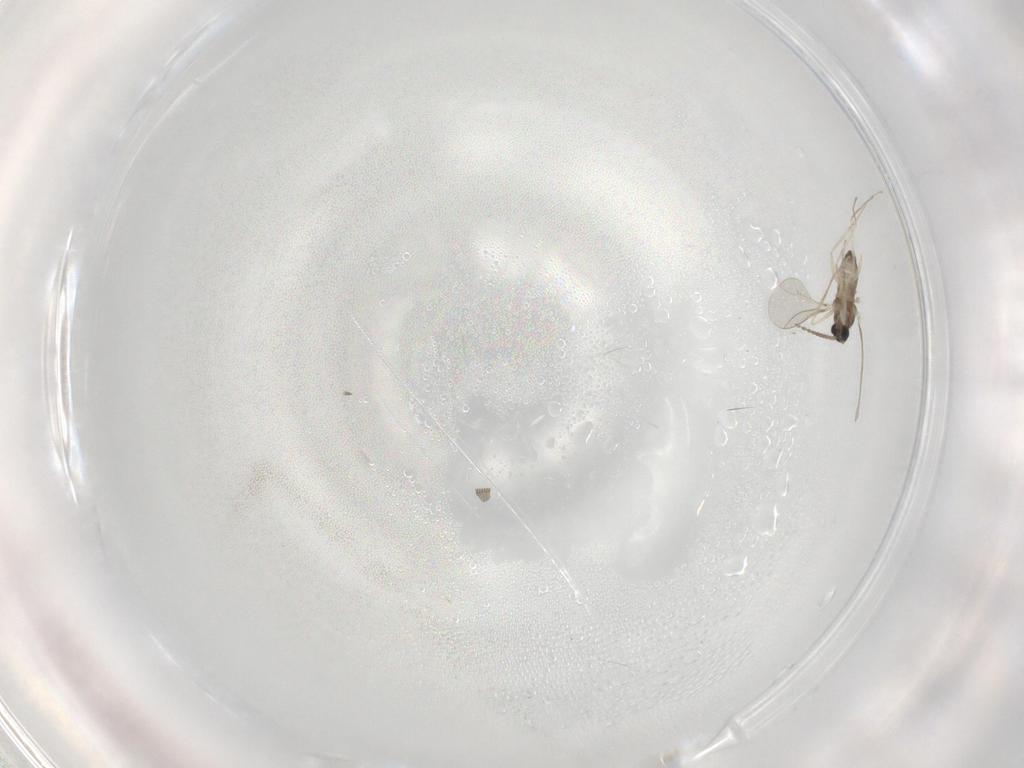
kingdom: Animalia
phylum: Arthropoda
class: Insecta
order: Diptera
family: Cecidomyiidae
